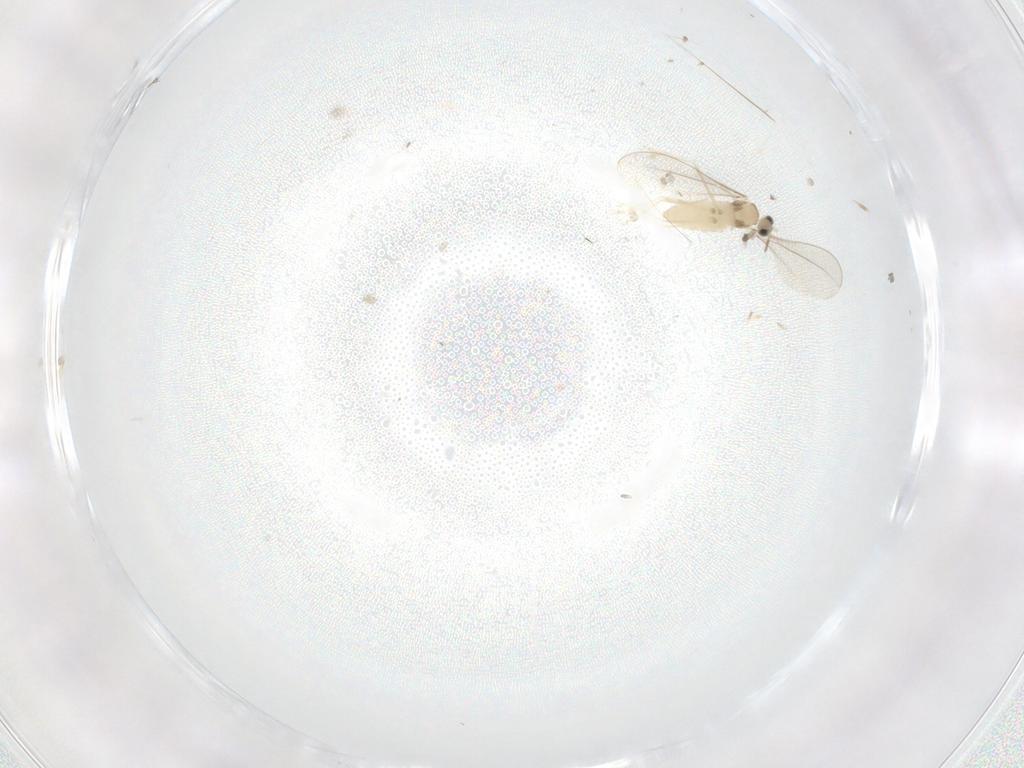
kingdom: Animalia
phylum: Arthropoda
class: Insecta
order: Diptera
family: Cecidomyiidae
